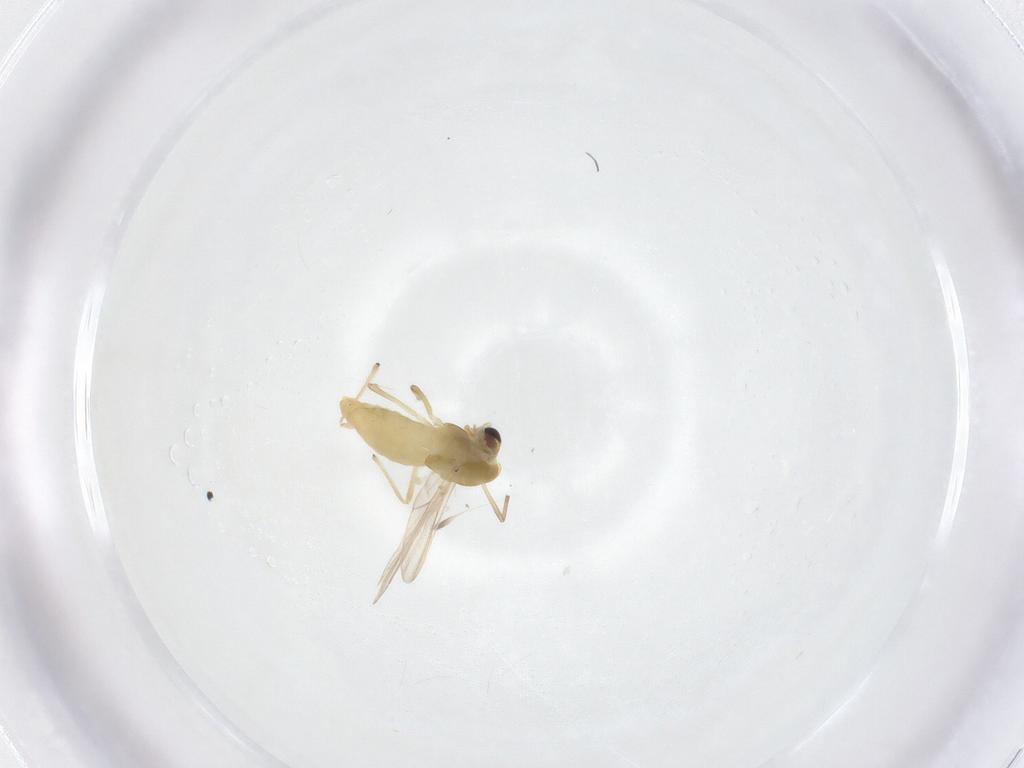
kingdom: Animalia
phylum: Arthropoda
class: Insecta
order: Diptera
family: Chironomidae
